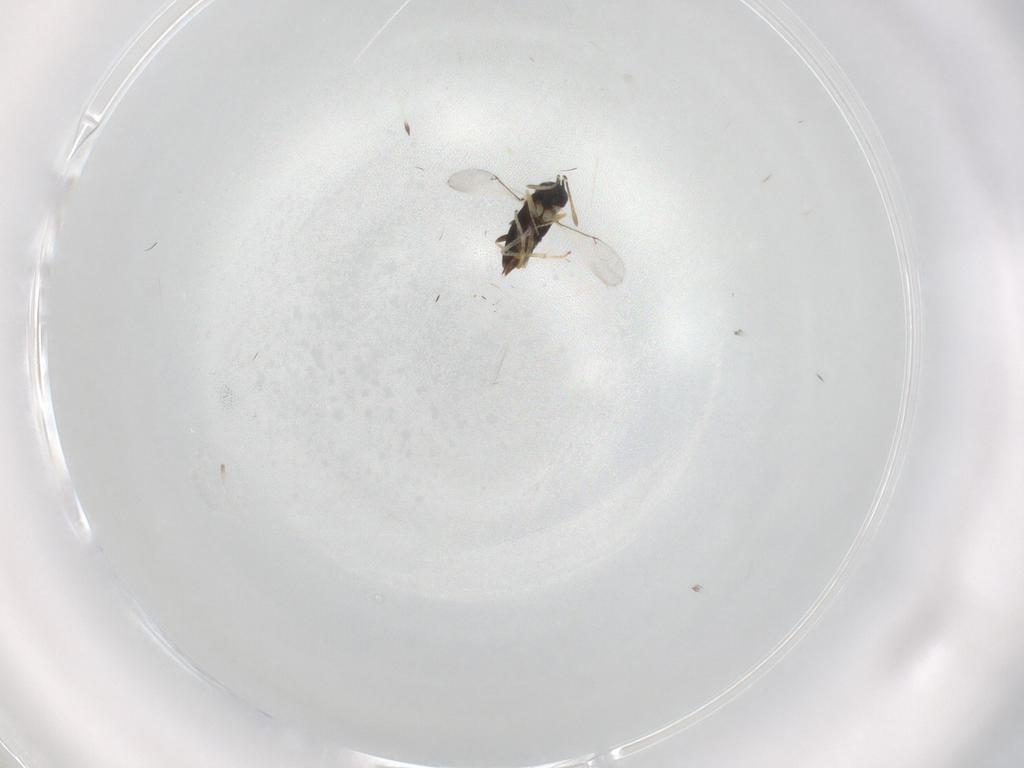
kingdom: Animalia
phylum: Arthropoda
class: Insecta
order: Hymenoptera
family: Encyrtidae
